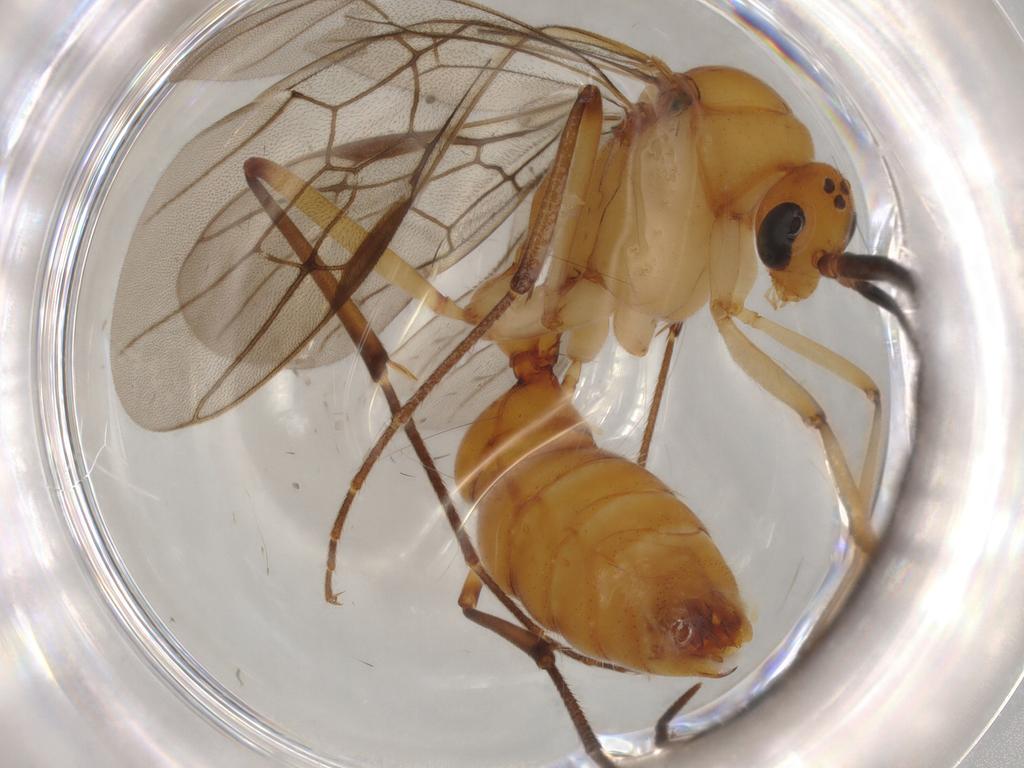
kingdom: Animalia
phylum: Arthropoda
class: Insecta
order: Hymenoptera
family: Formicidae
